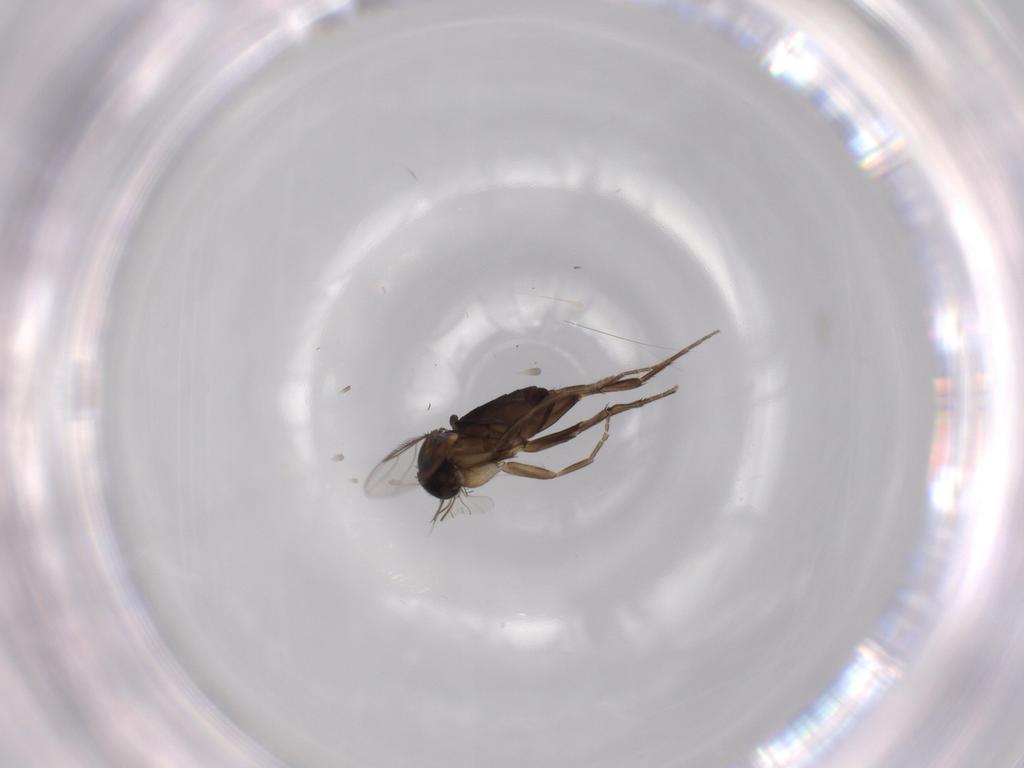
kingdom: Animalia
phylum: Arthropoda
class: Insecta
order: Diptera
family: Phoridae
